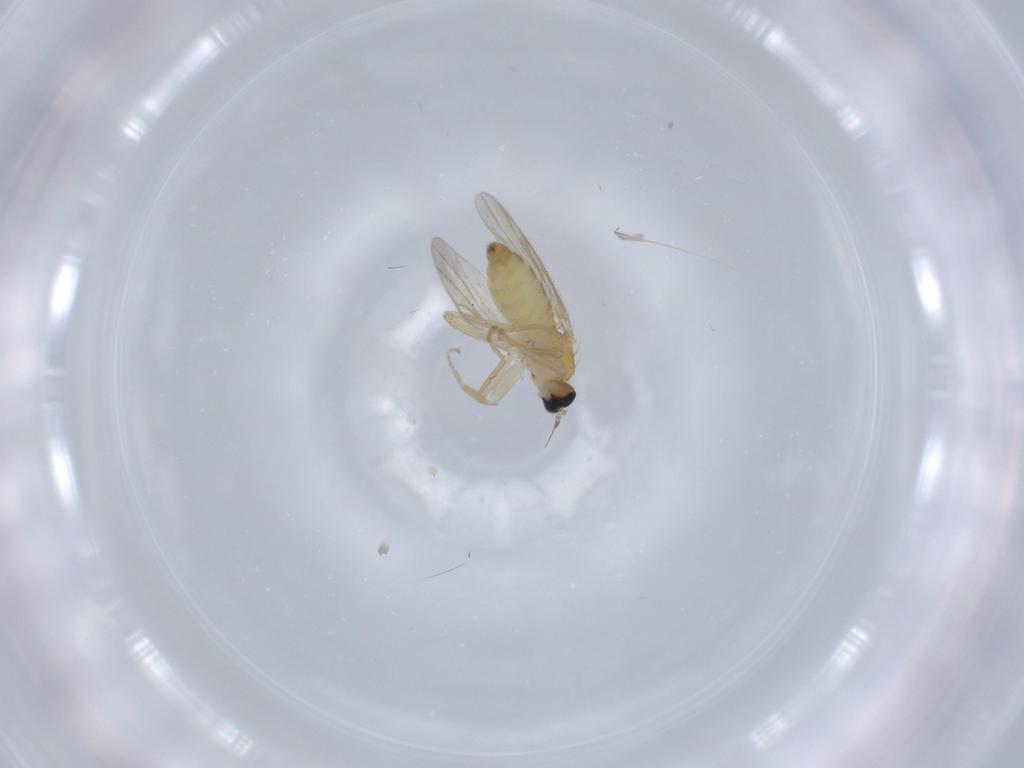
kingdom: Animalia
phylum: Arthropoda
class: Insecta
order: Diptera
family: Hybotidae
